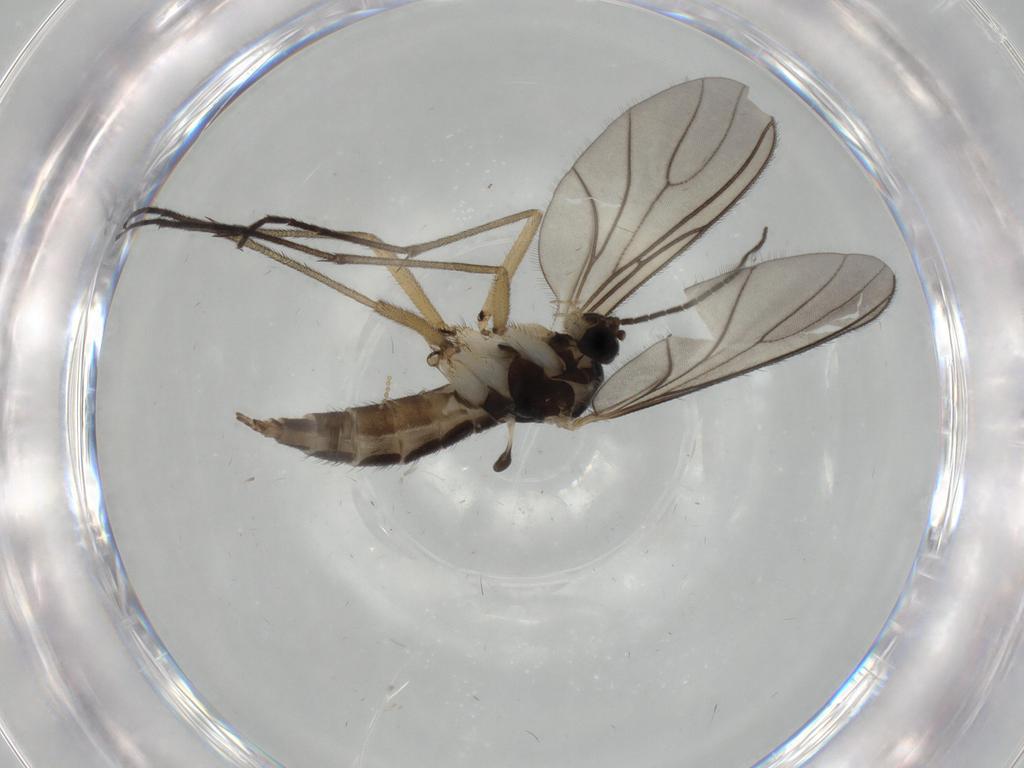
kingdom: Animalia
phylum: Arthropoda
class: Insecta
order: Diptera
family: Sciaridae
